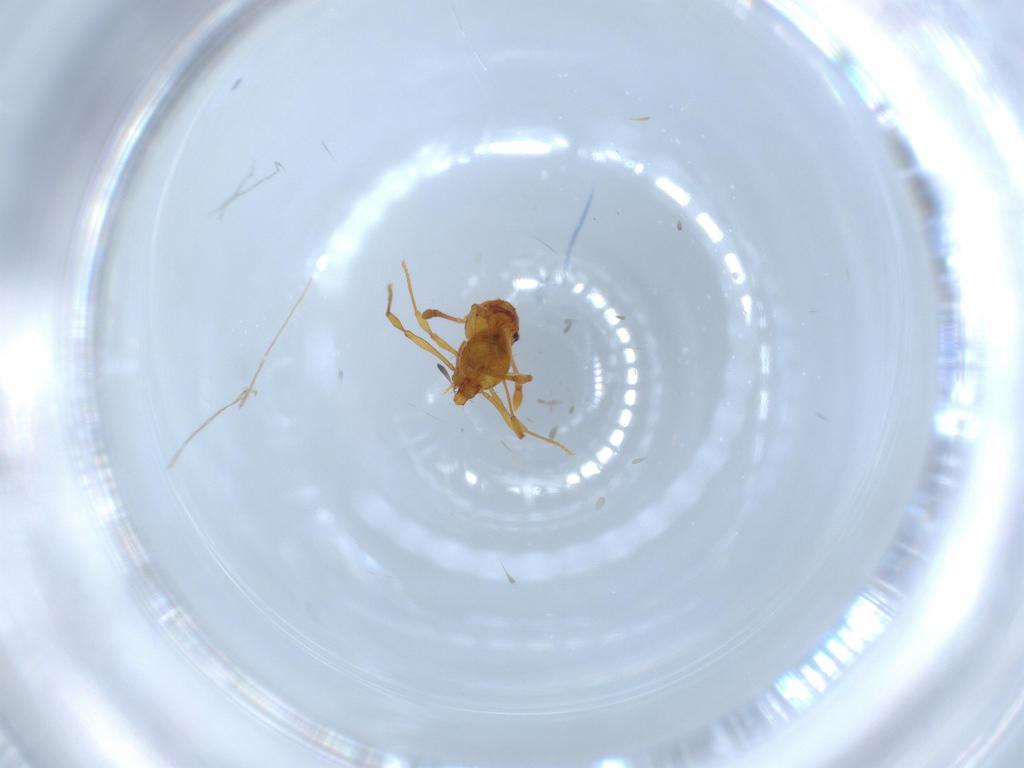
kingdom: Animalia
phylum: Arthropoda
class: Insecta
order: Hymenoptera
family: Formicidae
